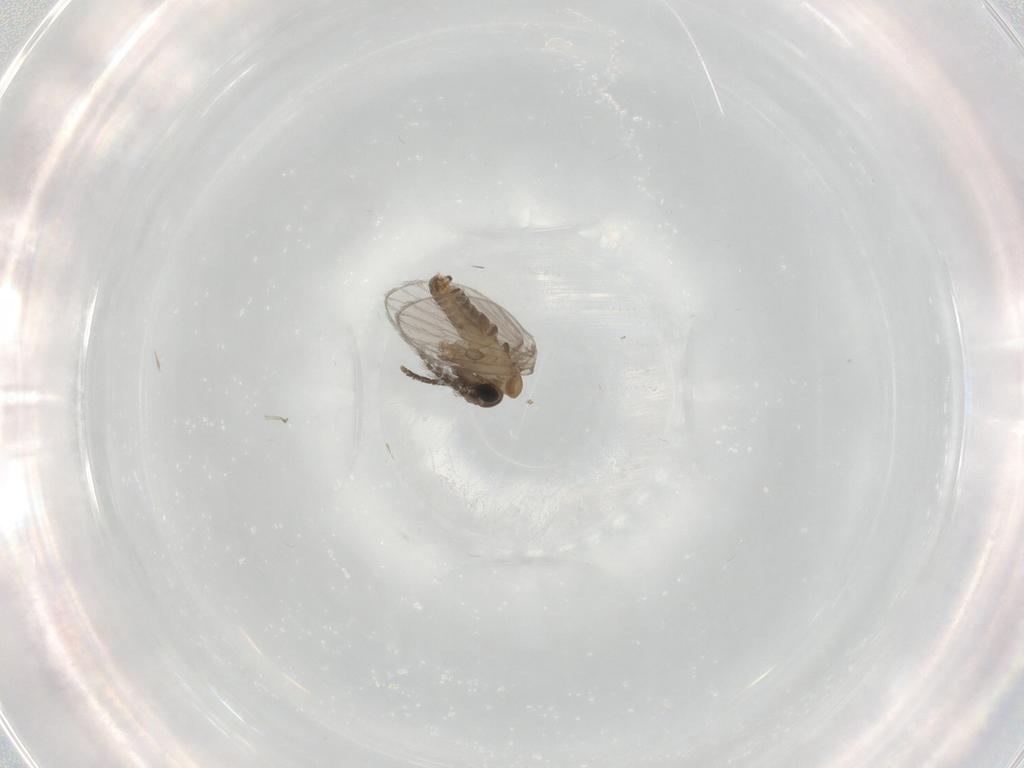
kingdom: Animalia
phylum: Arthropoda
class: Insecta
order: Diptera
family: Psychodidae
